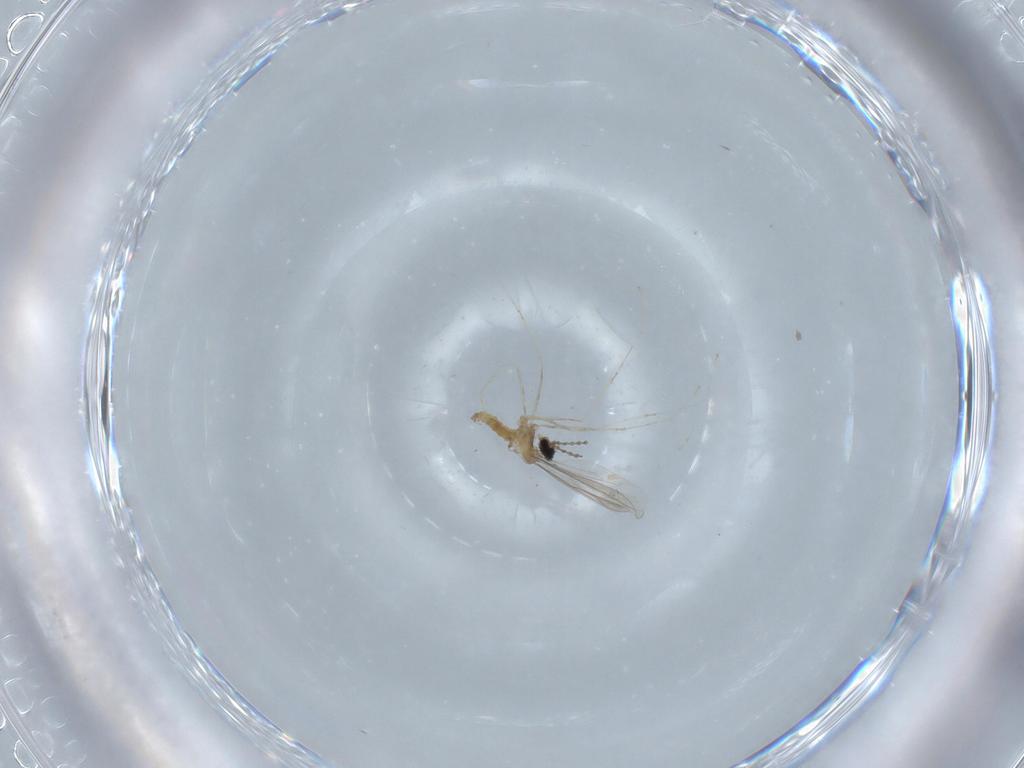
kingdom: Animalia
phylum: Arthropoda
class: Insecta
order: Diptera
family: Cecidomyiidae
